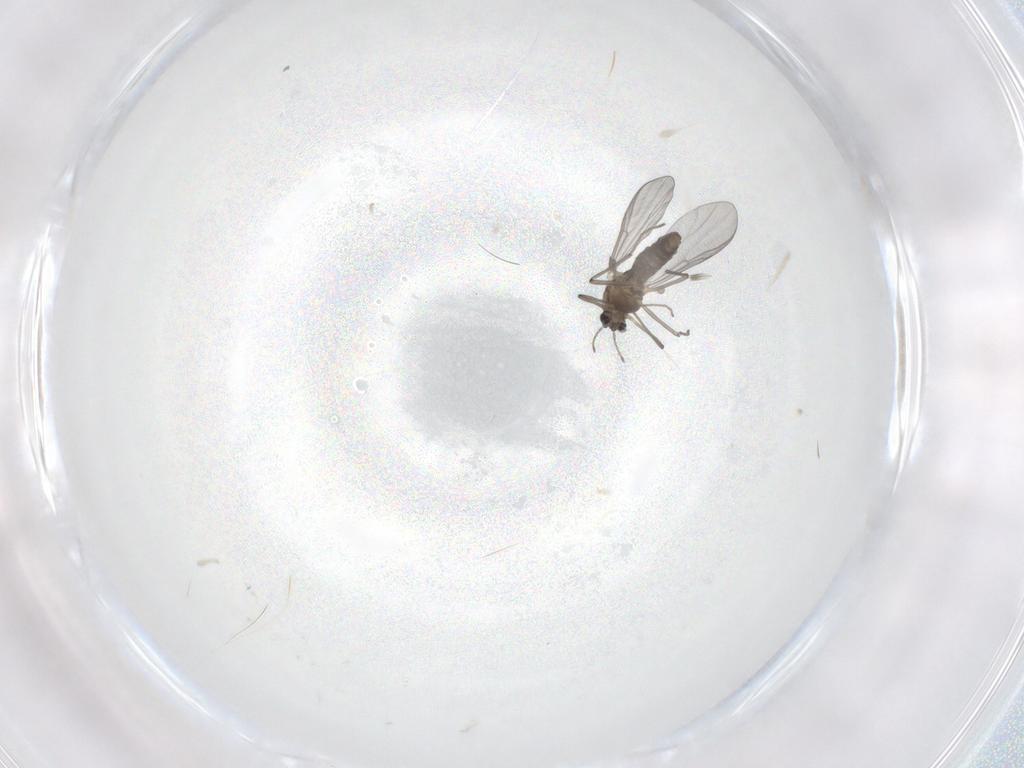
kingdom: Animalia
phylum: Arthropoda
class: Insecta
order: Diptera
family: Chironomidae
